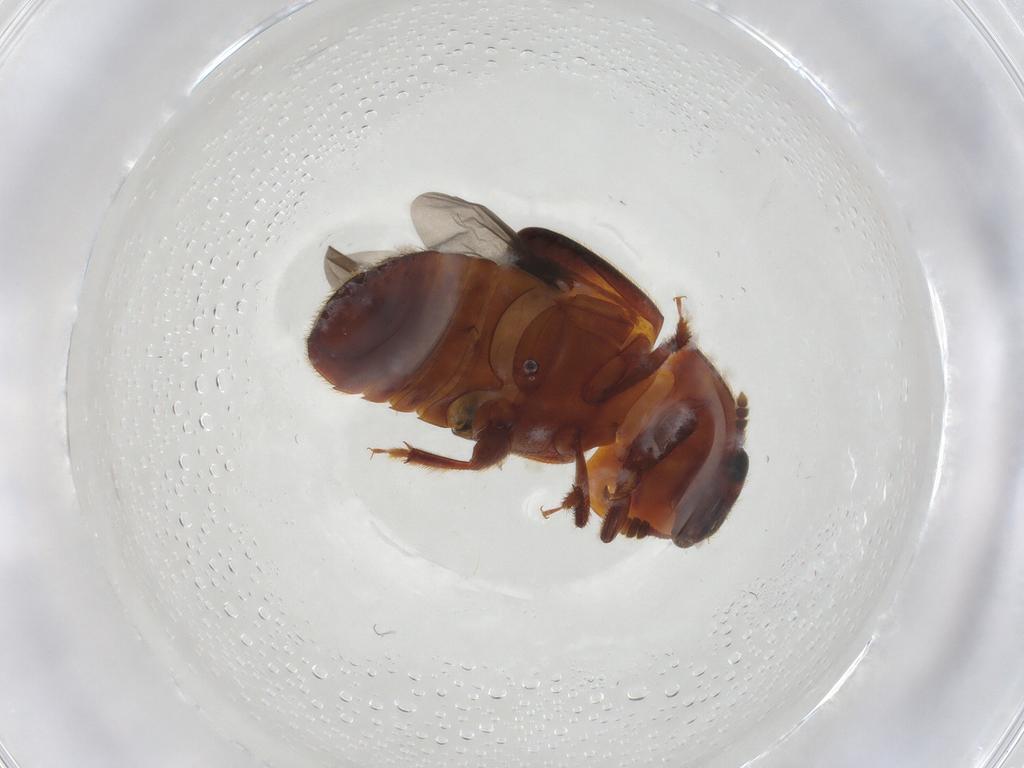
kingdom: Animalia
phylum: Arthropoda
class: Insecta
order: Coleoptera
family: Nitidulidae
